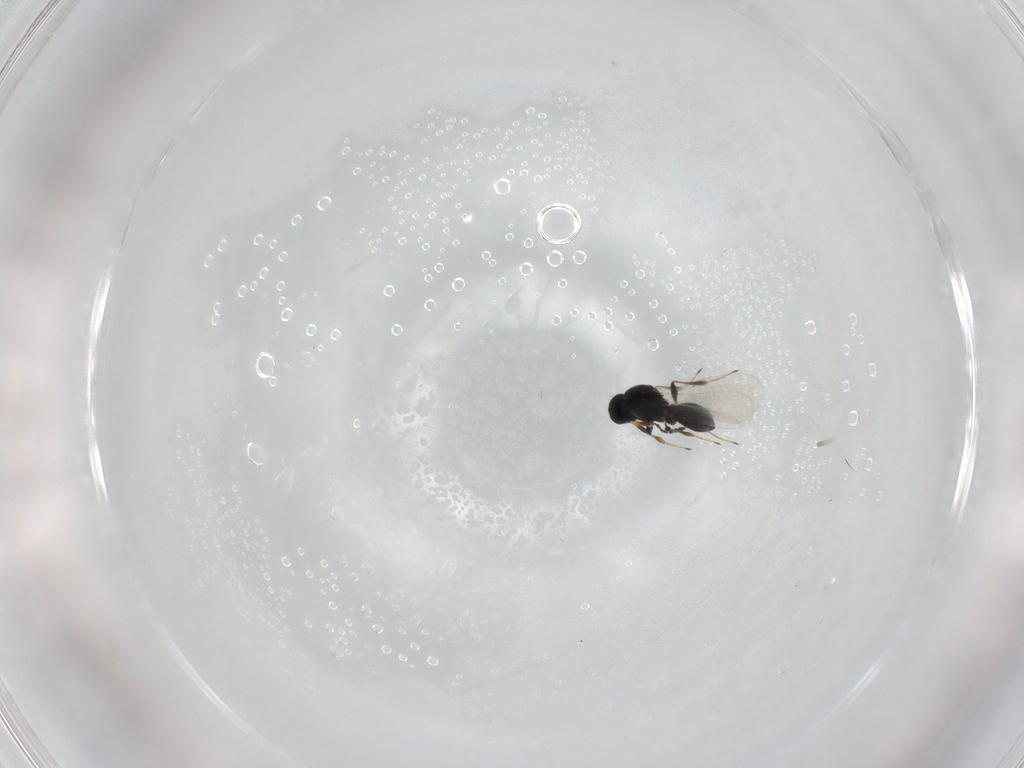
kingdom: Animalia
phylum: Arthropoda
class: Insecta
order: Hymenoptera
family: Platygastridae
